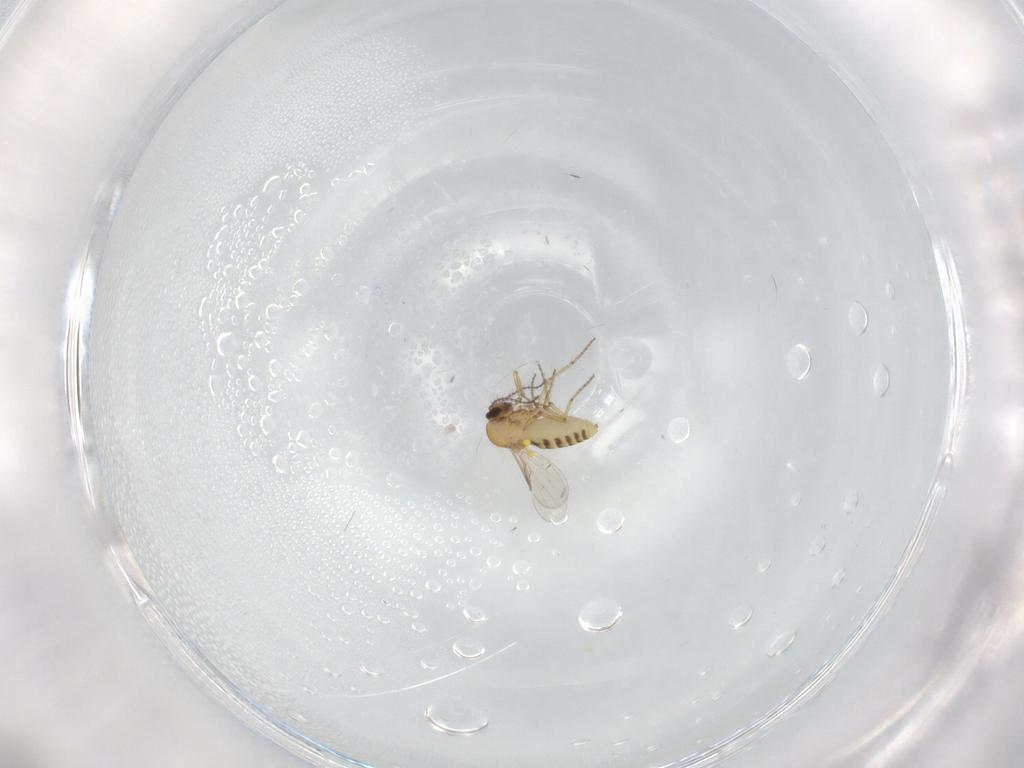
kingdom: Animalia
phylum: Arthropoda
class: Insecta
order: Diptera
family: Ceratopogonidae
